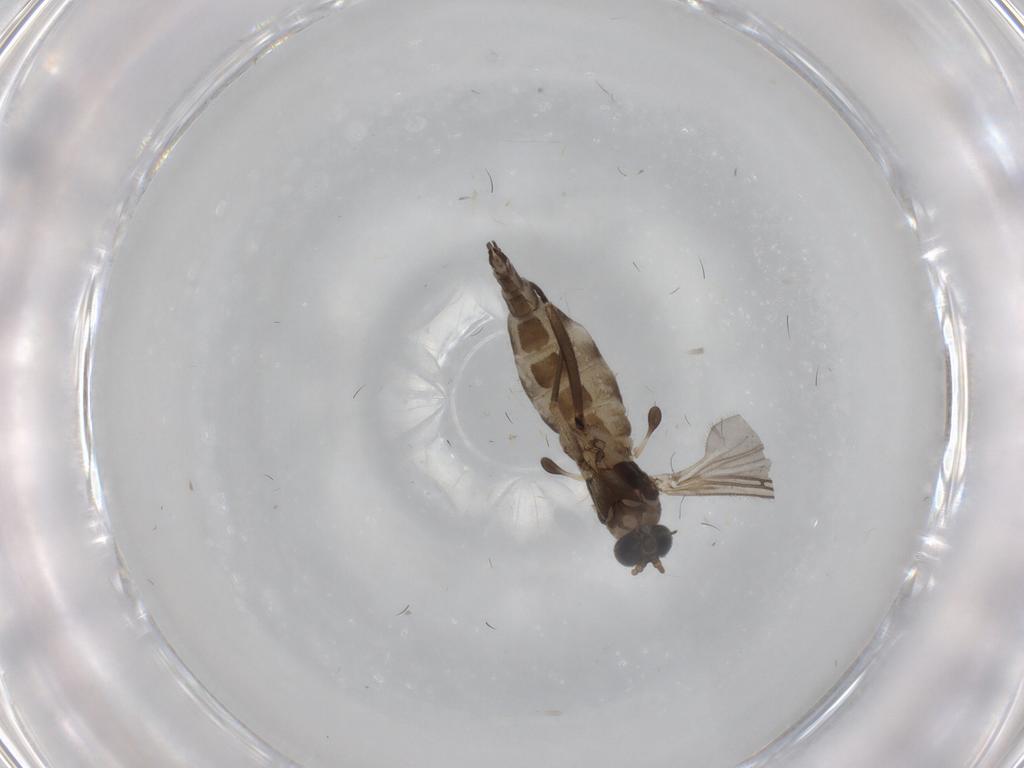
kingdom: Animalia
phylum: Arthropoda
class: Insecta
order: Diptera
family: Sciaridae
